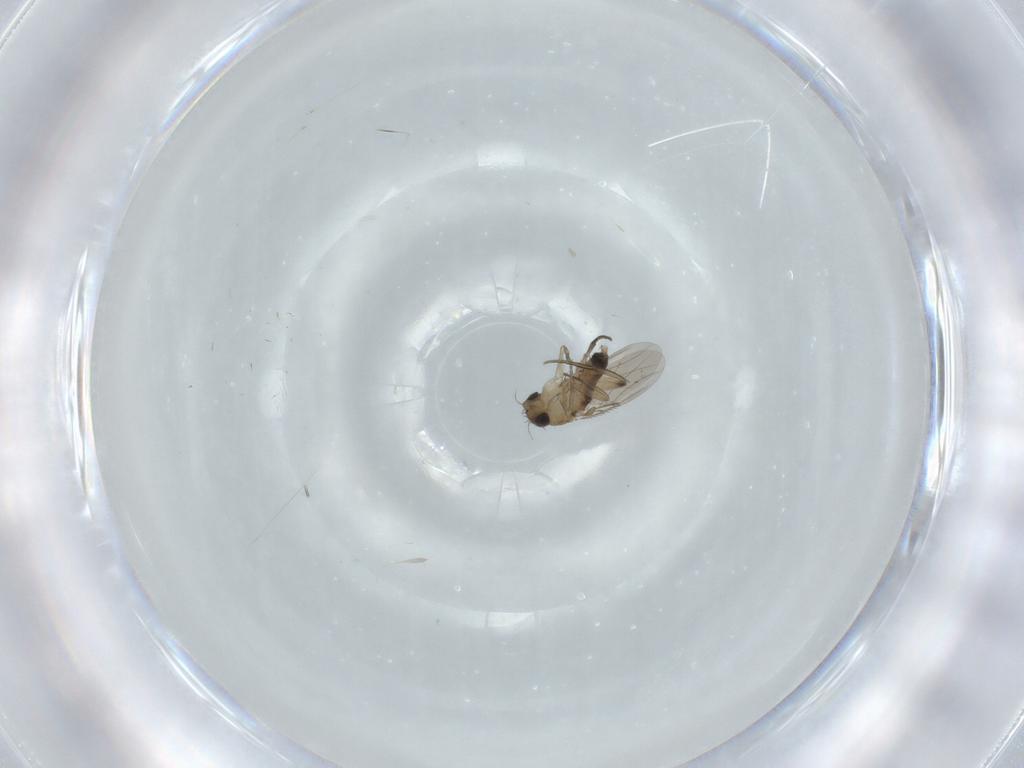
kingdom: Animalia
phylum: Arthropoda
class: Insecta
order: Diptera
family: Phoridae
